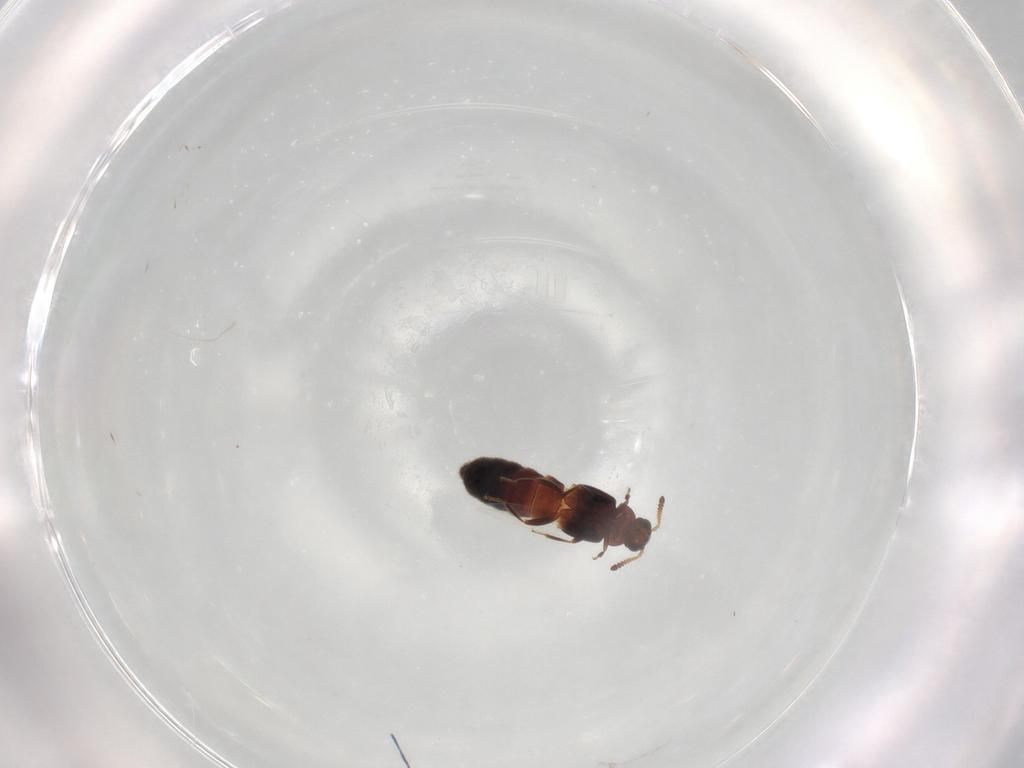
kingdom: Animalia
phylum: Arthropoda
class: Insecta
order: Coleoptera
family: Staphylinidae
